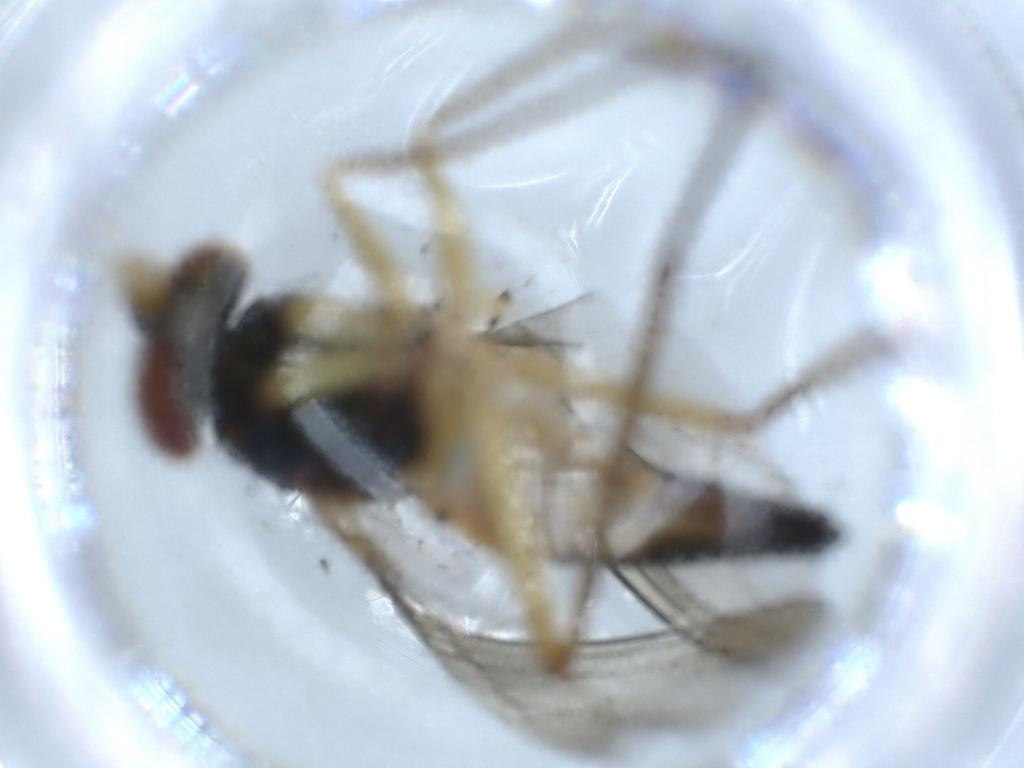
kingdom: Animalia
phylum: Arthropoda
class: Insecta
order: Diptera
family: Dolichopodidae
